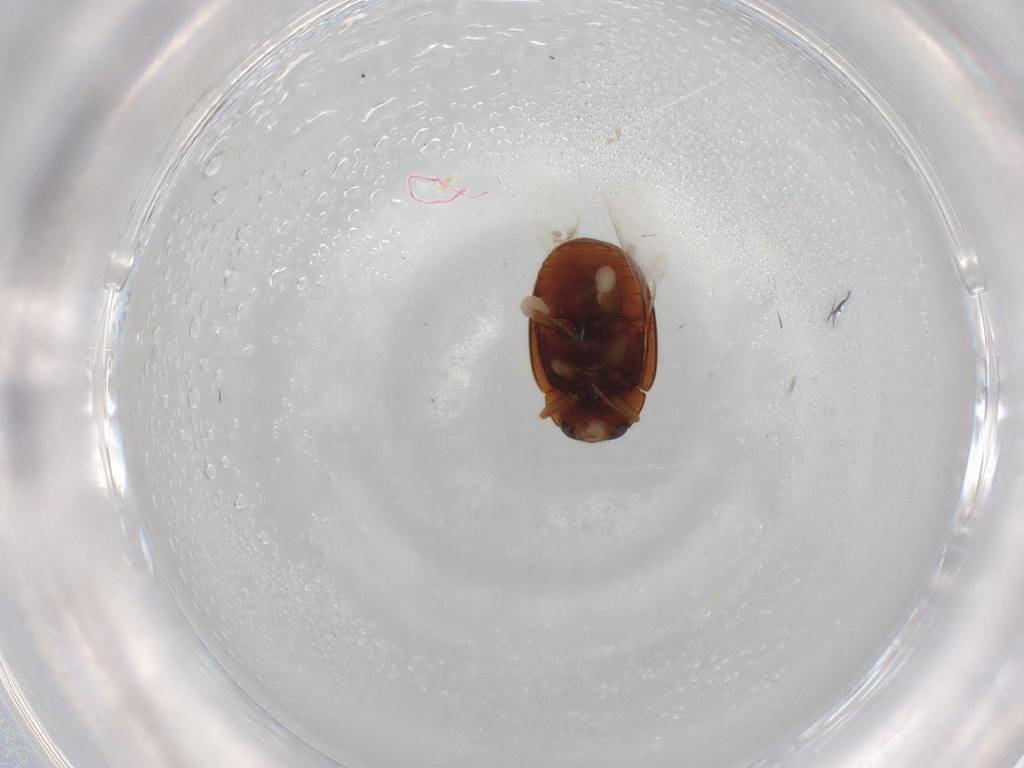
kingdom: Animalia
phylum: Arthropoda
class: Insecta
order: Coleoptera
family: Coccinellidae
